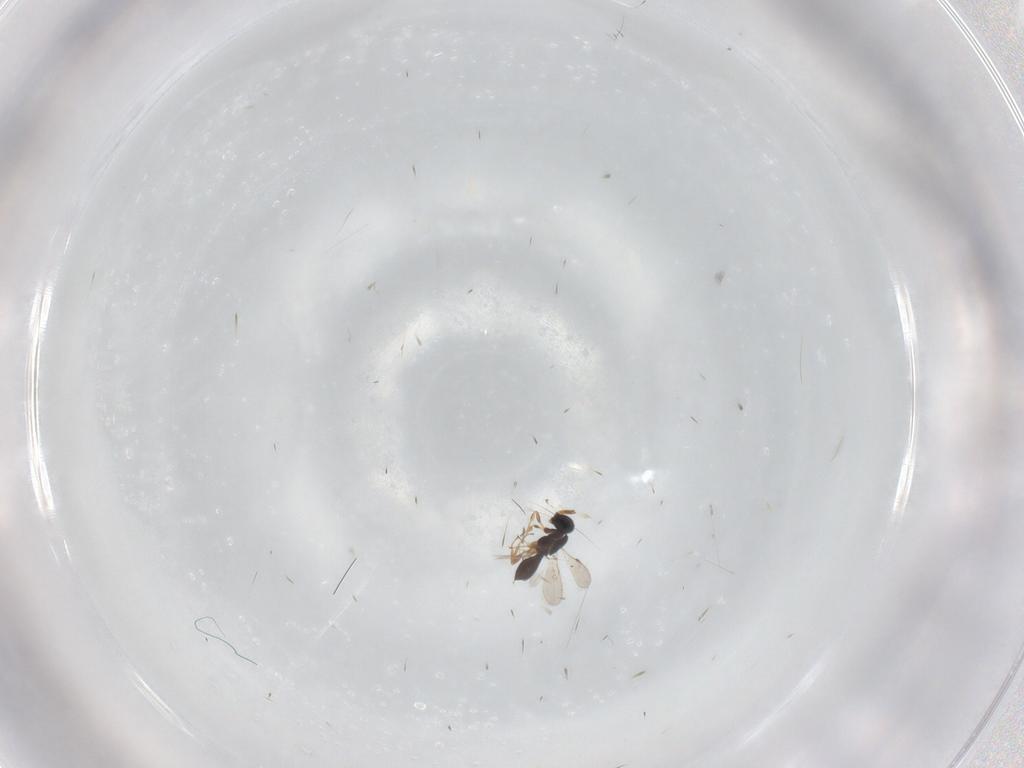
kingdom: Animalia
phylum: Arthropoda
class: Insecta
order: Hymenoptera
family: Scelionidae
